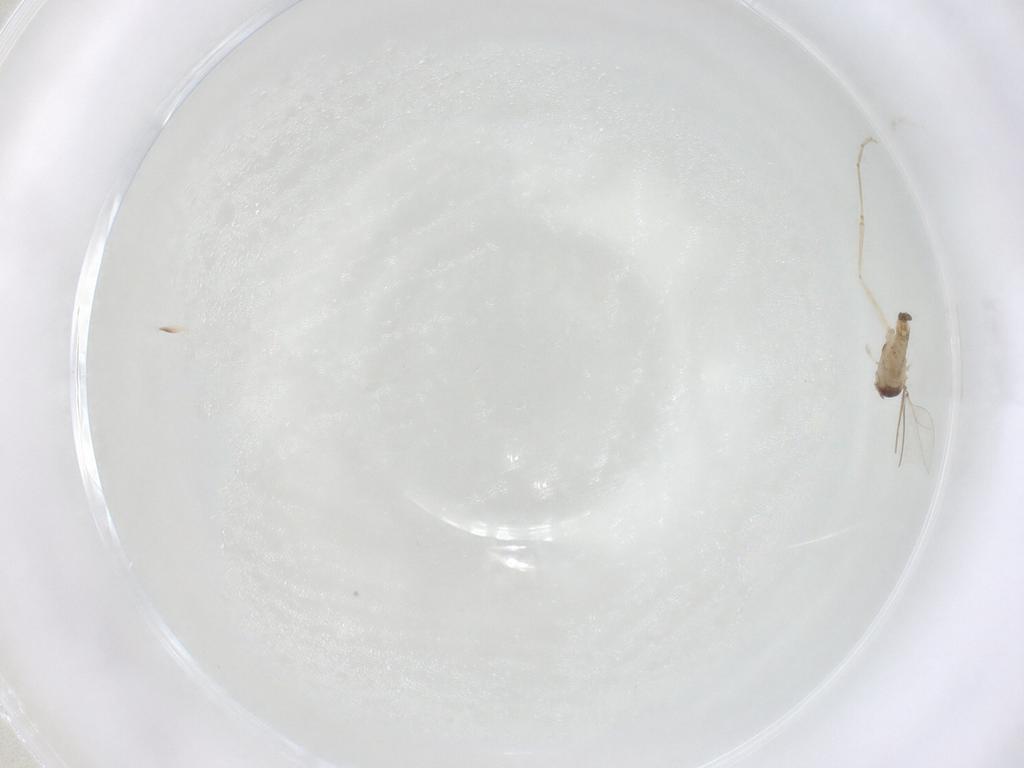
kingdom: Animalia
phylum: Arthropoda
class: Insecta
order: Diptera
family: Cecidomyiidae
